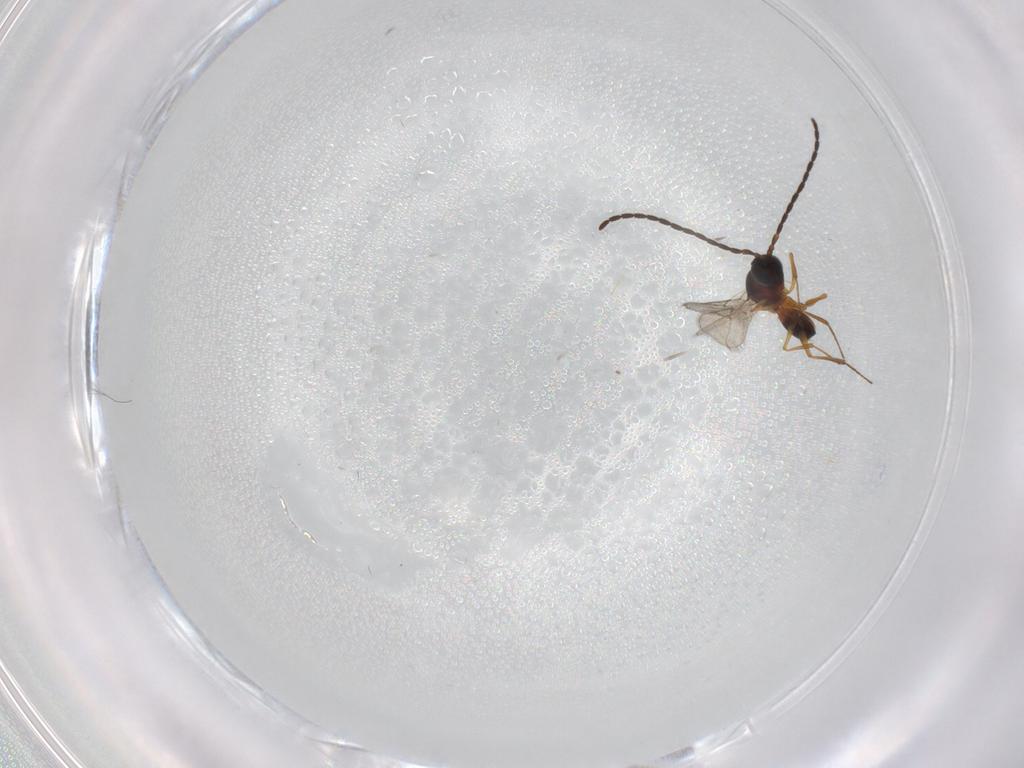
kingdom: Animalia
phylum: Arthropoda
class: Insecta
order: Hymenoptera
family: Figitidae
